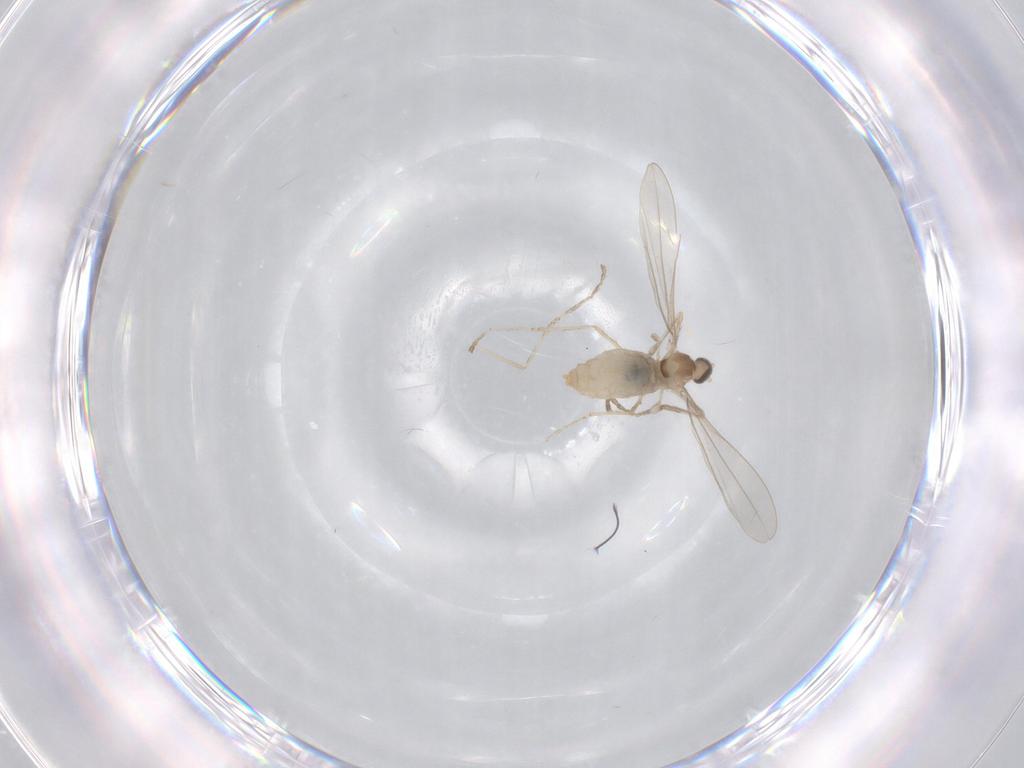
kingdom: Animalia
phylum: Arthropoda
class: Insecta
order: Diptera
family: Cecidomyiidae
